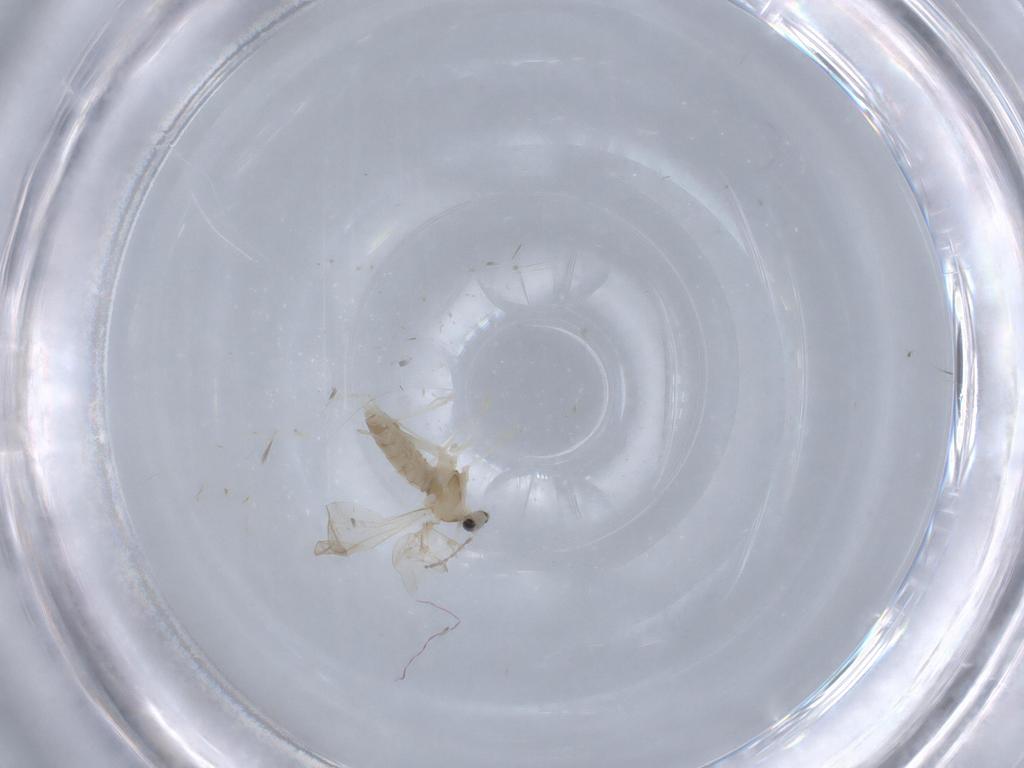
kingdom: Animalia
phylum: Arthropoda
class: Insecta
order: Diptera
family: Cecidomyiidae
